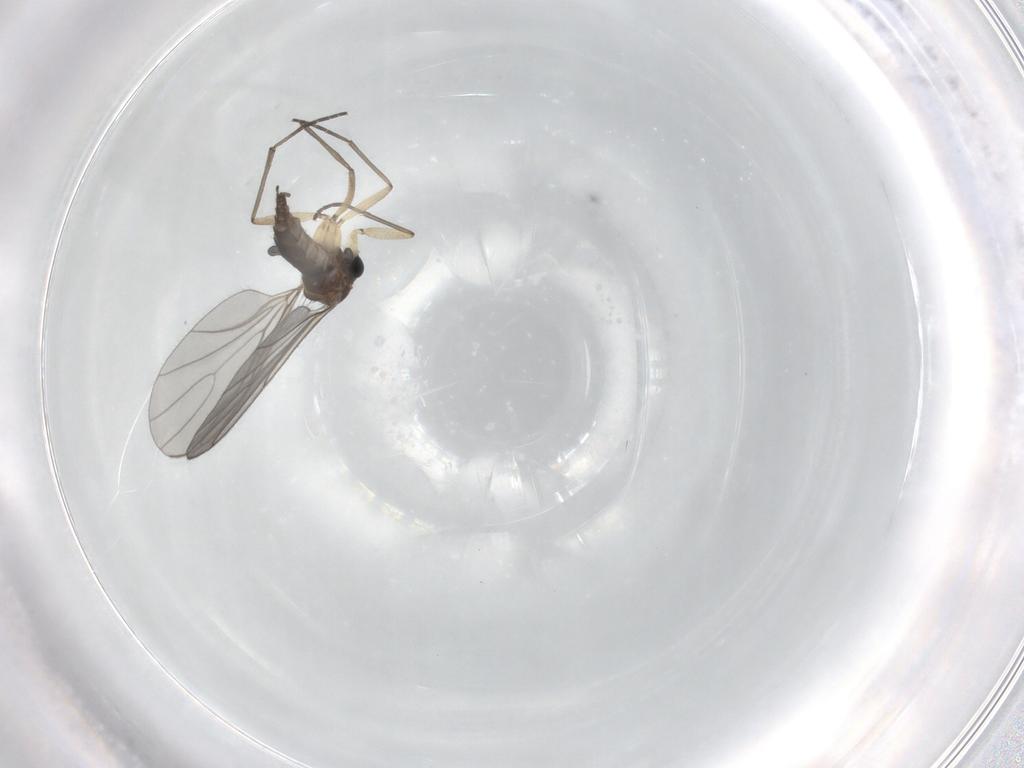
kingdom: Animalia
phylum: Arthropoda
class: Insecta
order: Diptera
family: Sciaridae
